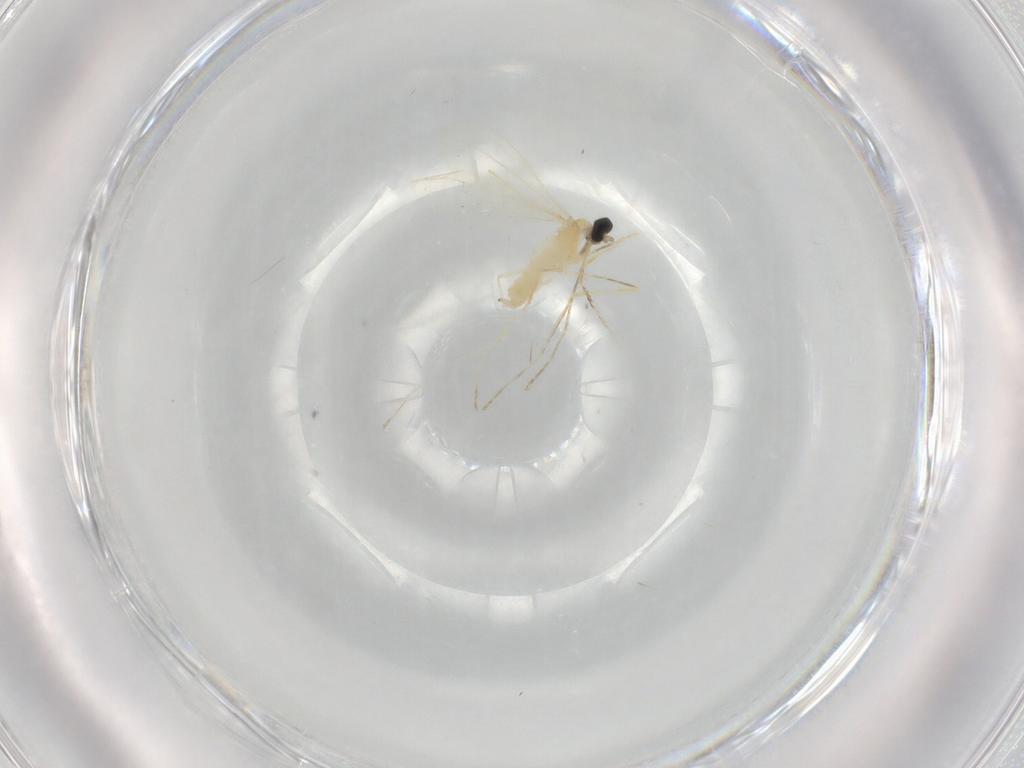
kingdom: Animalia
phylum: Arthropoda
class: Insecta
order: Diptera
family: Cecidomyiidae
